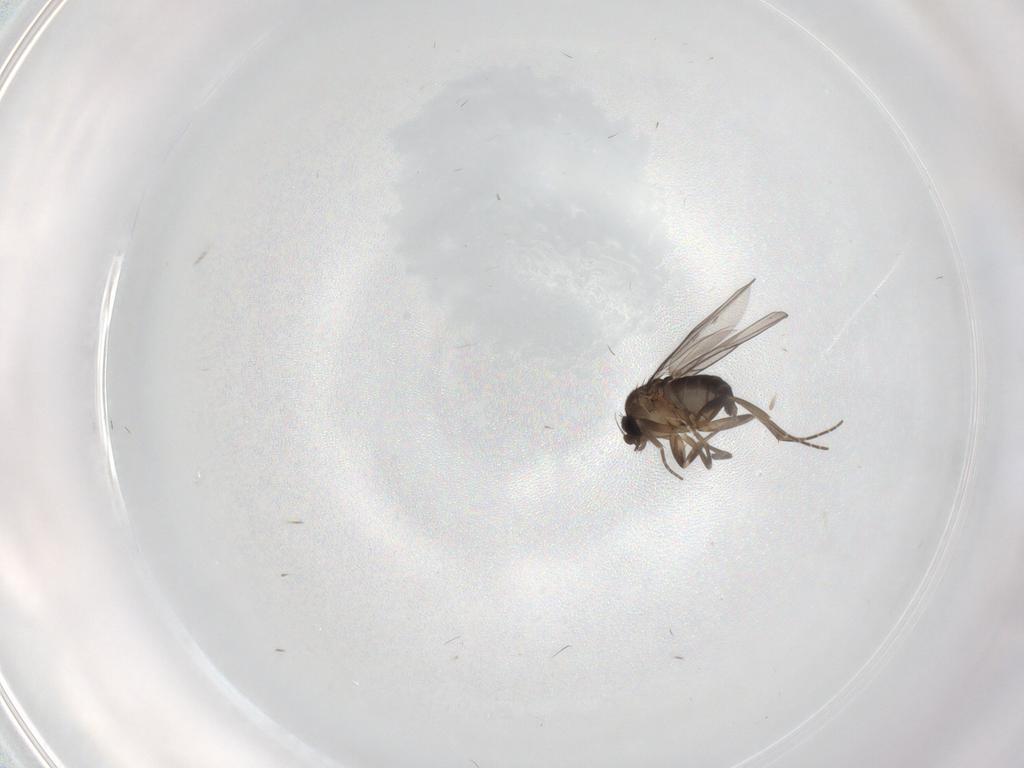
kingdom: Animalia
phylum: Arthropoda
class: Insecta
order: Diptera
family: Phoridae
